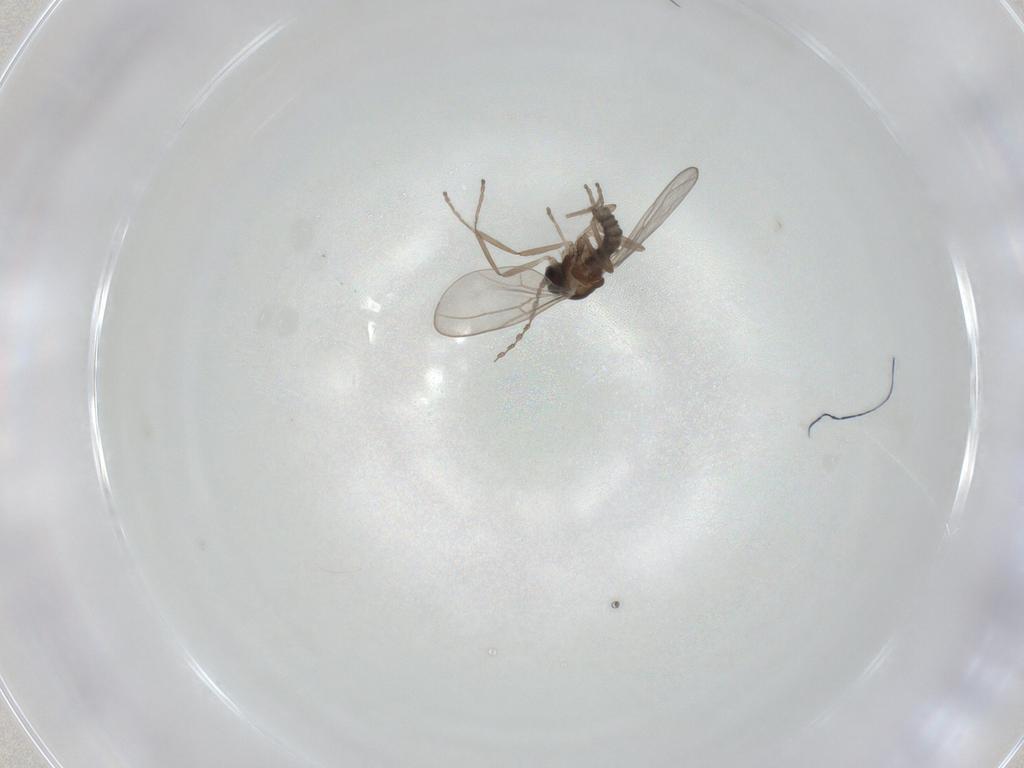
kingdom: Animalia
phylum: Arthropoda
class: Insecta
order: Diptera
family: Cecidomyiidae
